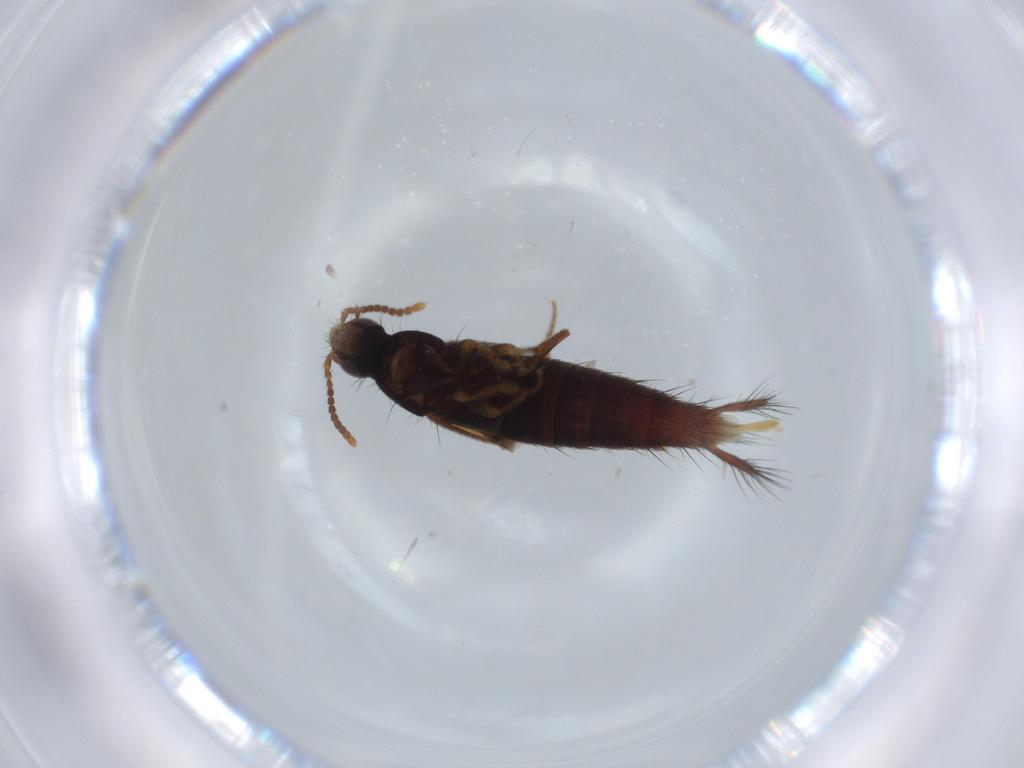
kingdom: Animalia
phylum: Arthropoda
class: Insecta
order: Coleoptera
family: Staphylinidae
